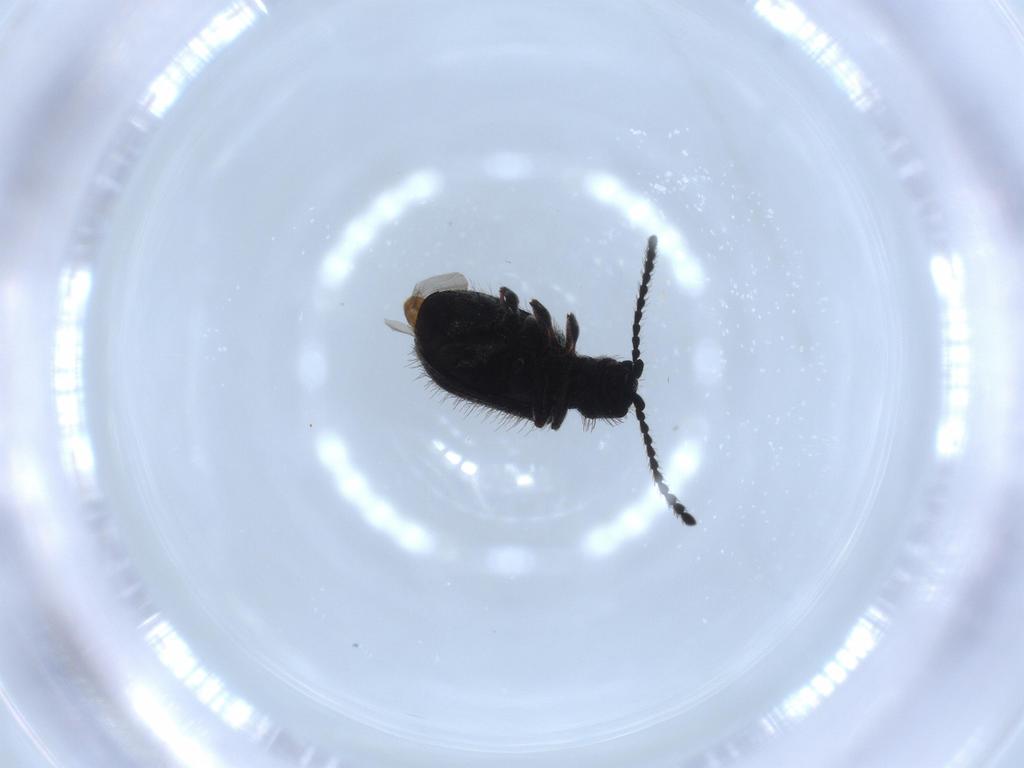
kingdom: Animalia
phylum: Arthropoda
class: Insecta
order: Coleoptera
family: Ptinidae
